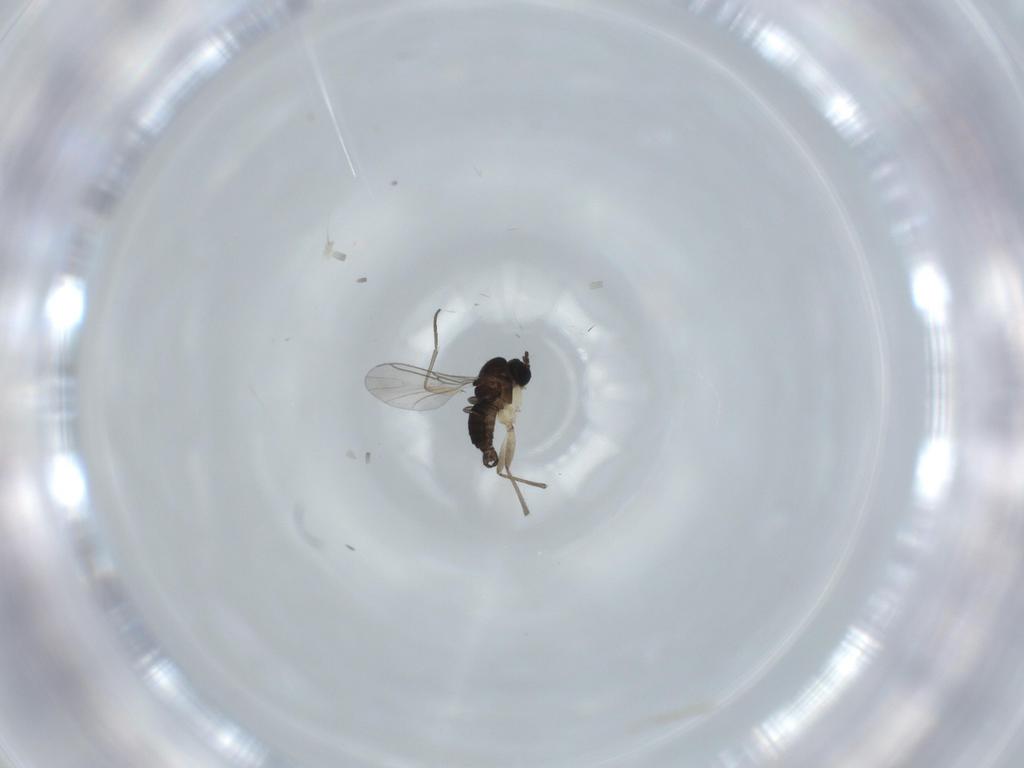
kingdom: Animalia
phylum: Arthropoda
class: Insecta
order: Diptera
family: Sciaridae
